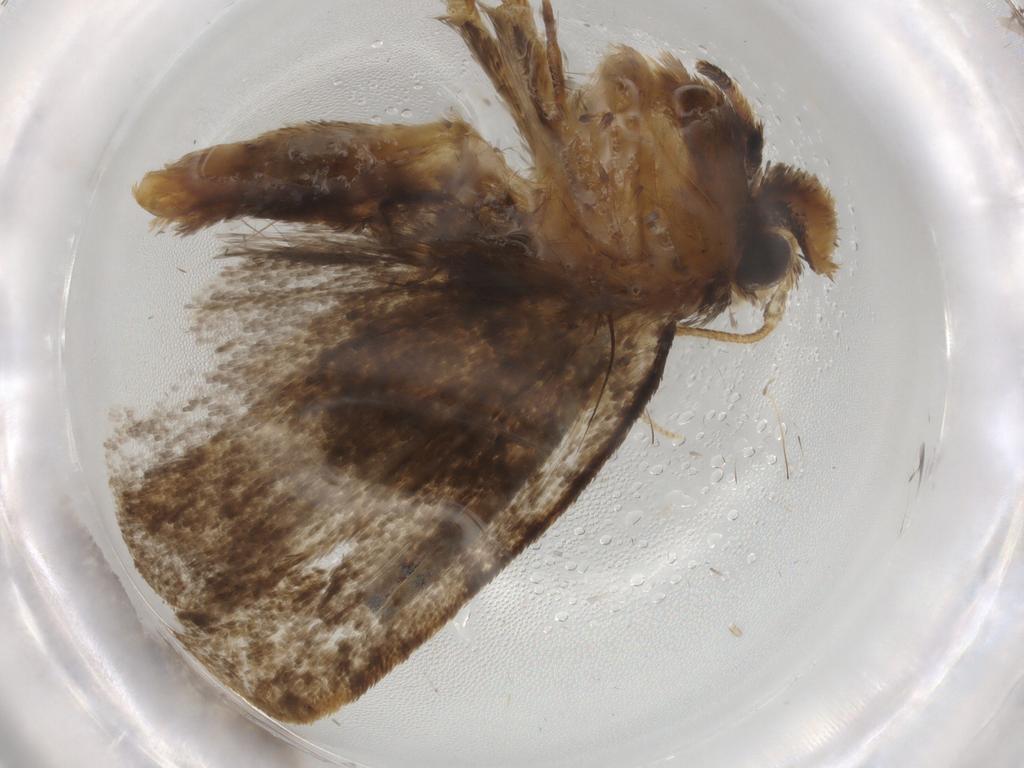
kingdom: Animalia
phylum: Arthropoda
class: Insecta
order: Lepidoptera
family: Tineidae
